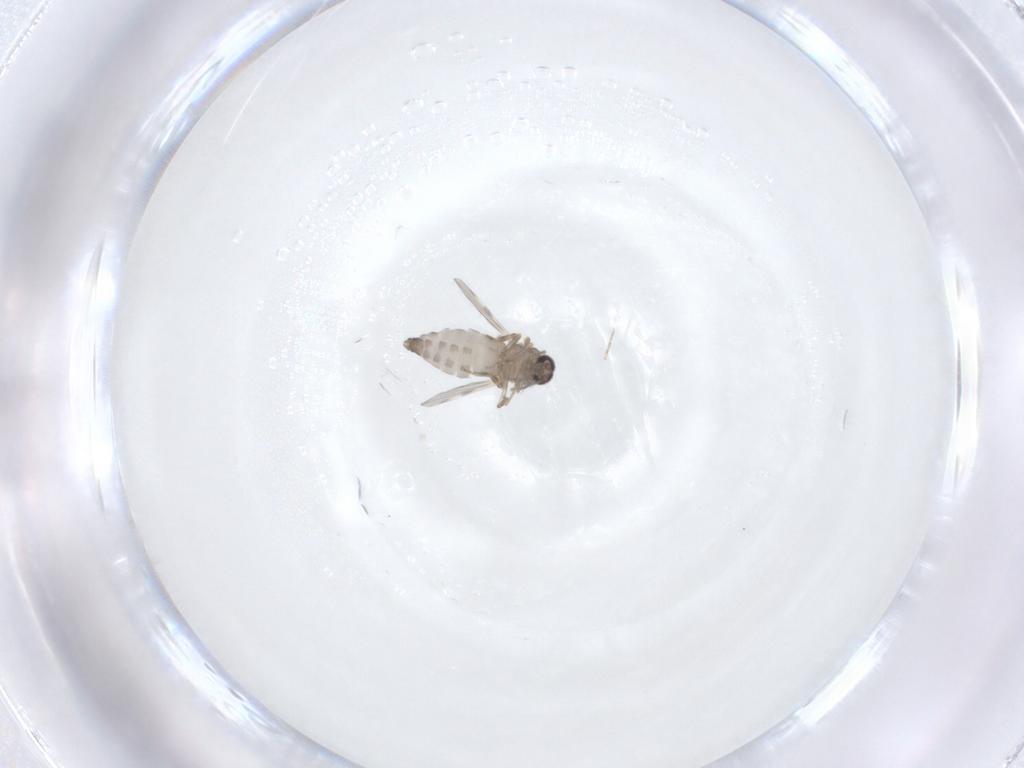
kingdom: Animalia
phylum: Arthropoda
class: Insecta
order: Diptera
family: Ceratopogonidae
